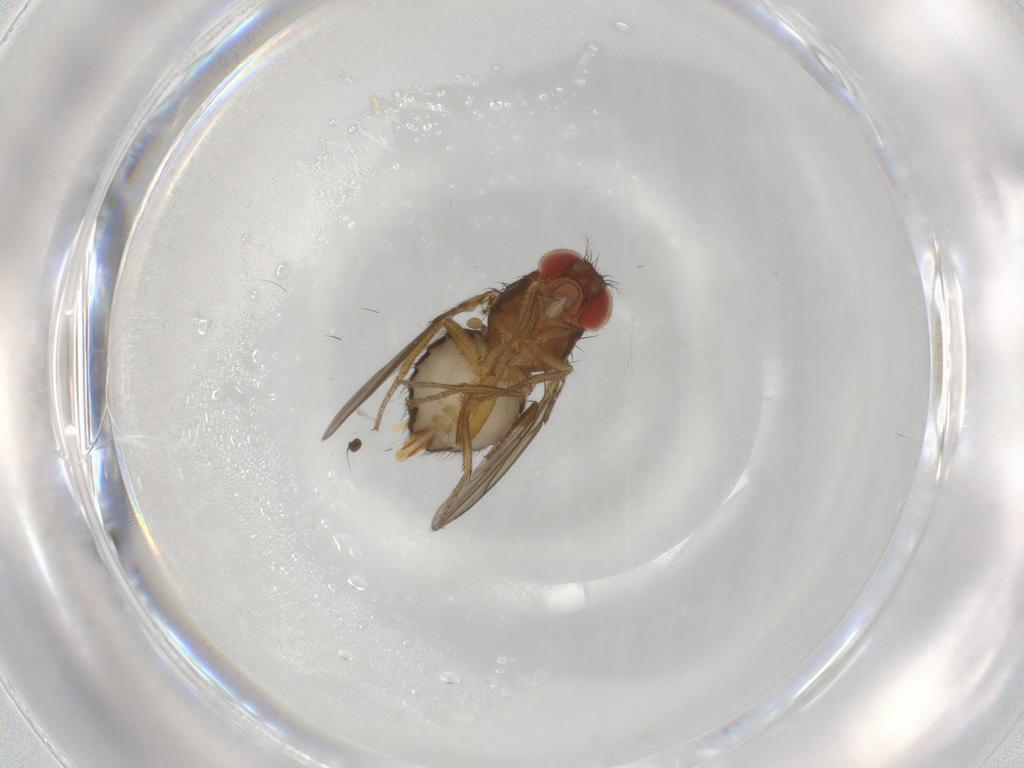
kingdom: Animalia
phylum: Arthropoda
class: Insecta
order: Diptera
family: Drosophilidae
